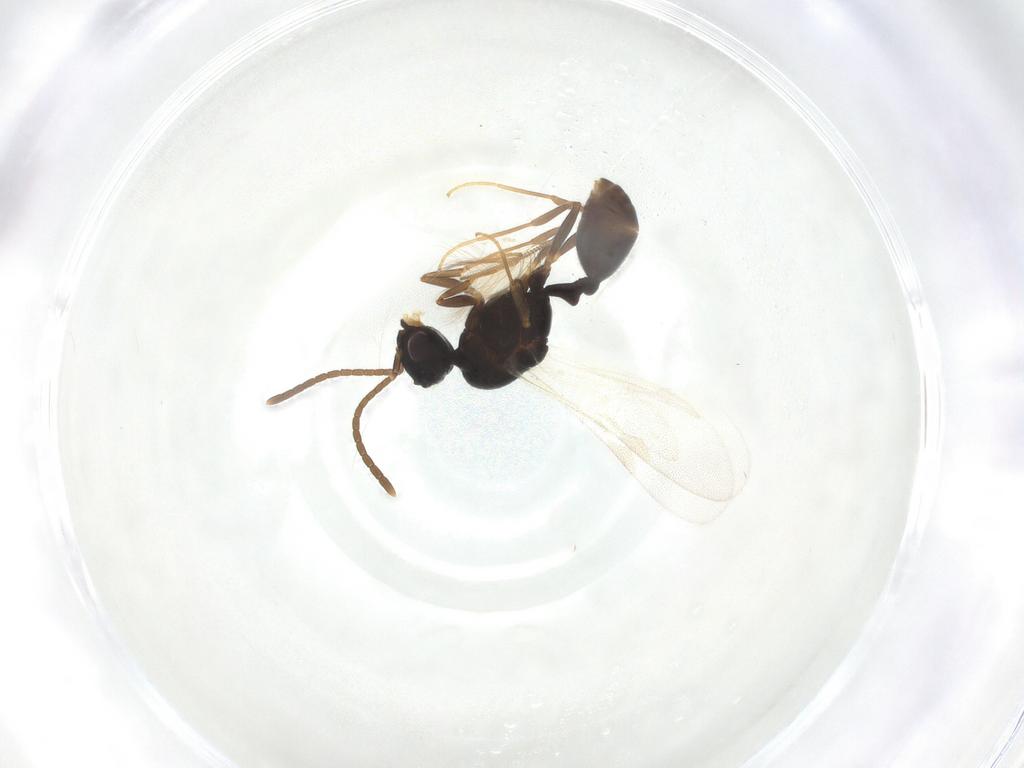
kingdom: Animalia
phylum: Arthropoda
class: Insecta
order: Hymenoptera
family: Formicidae
